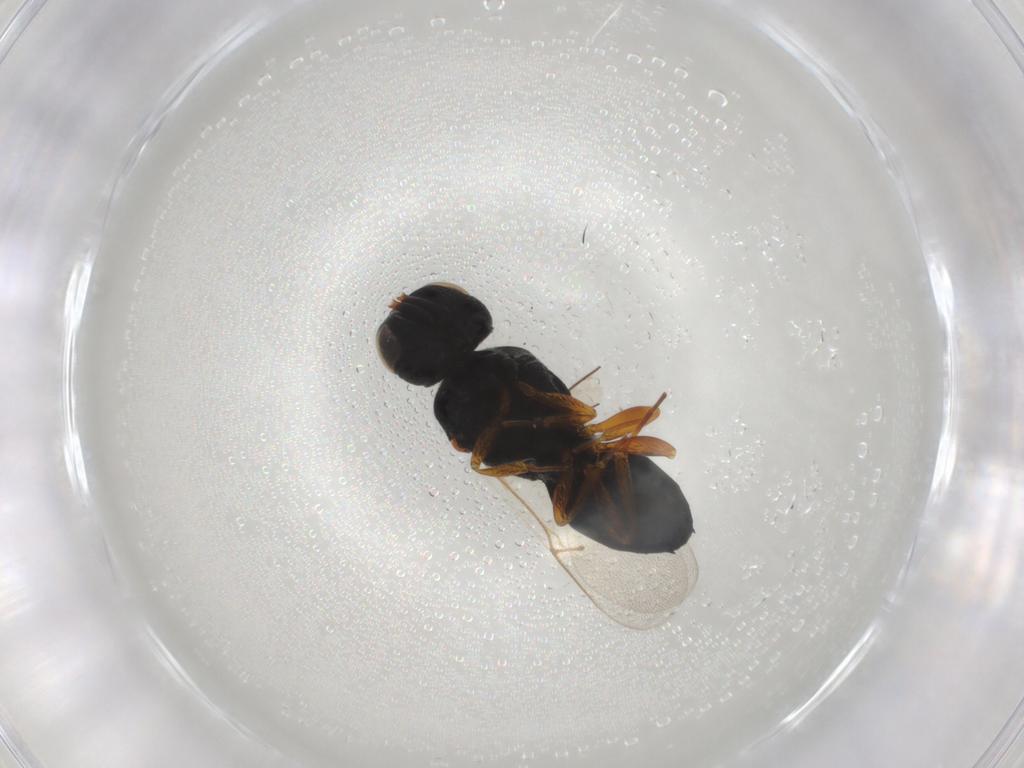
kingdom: Animalia
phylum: Arthropoda
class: Insecta
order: Hymenoptera
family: Scelionidae
